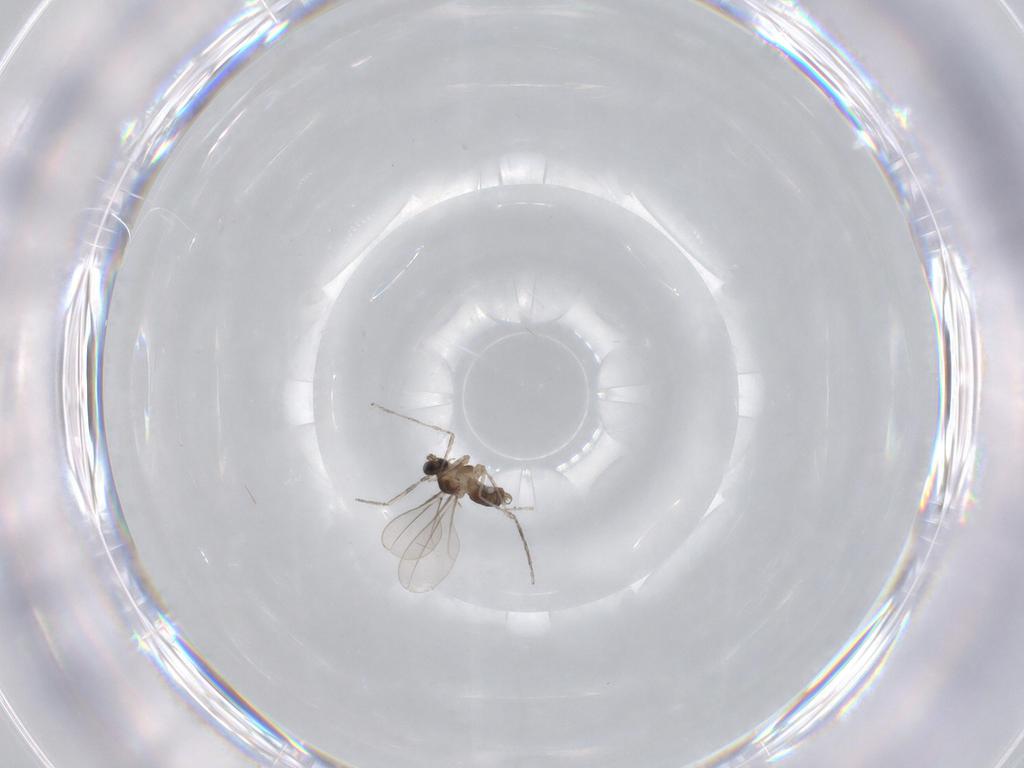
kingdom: Animalia
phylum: Arthropoda
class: Insecta
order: Diptera
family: Cecidomyiidae
